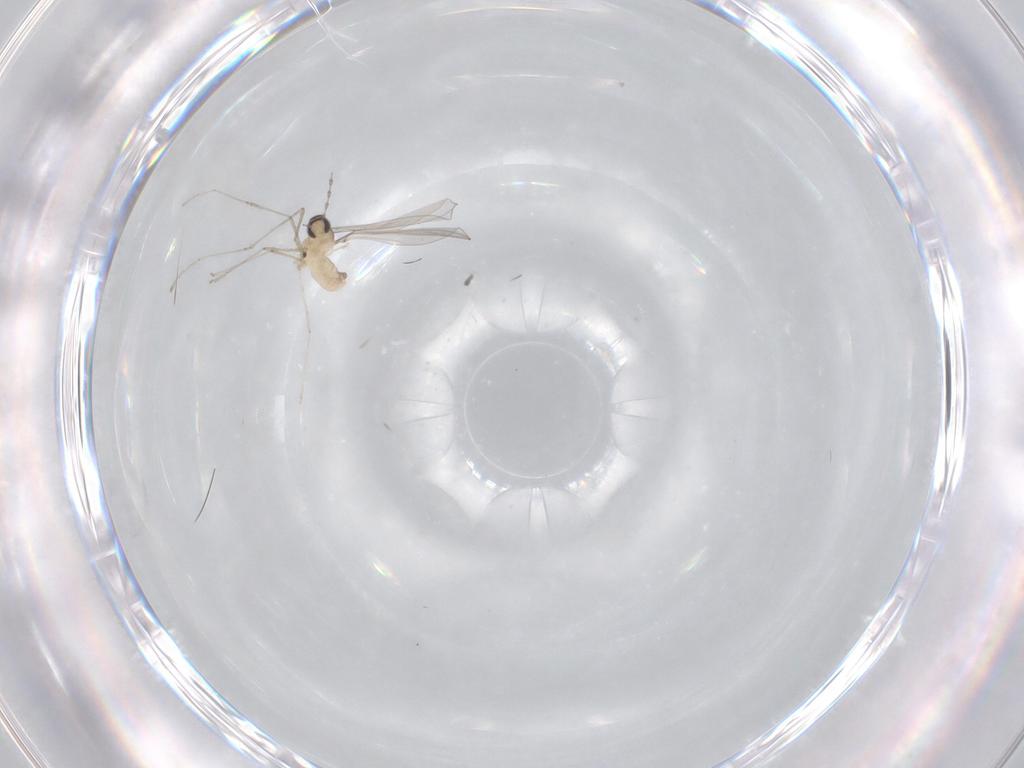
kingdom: Animalia
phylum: Arthropoda
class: Insecta
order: Diptera
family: Cecidomyiidae
